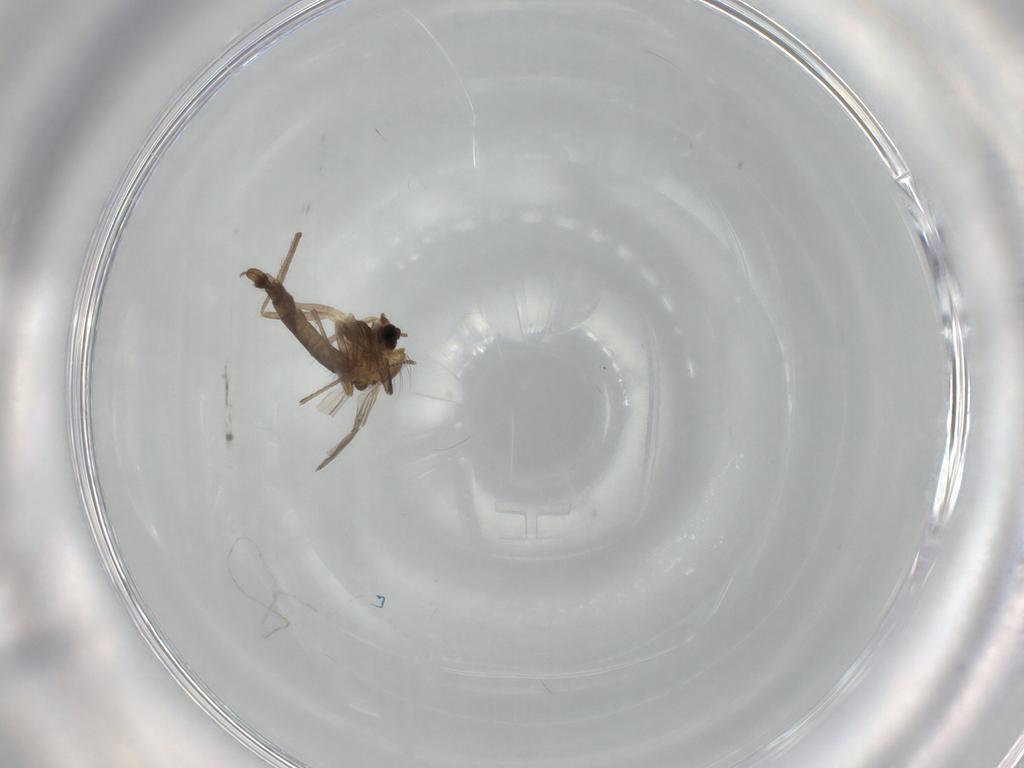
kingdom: Animalia
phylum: Arthropoda
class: Insecta
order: Diptera
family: Chironomidae
